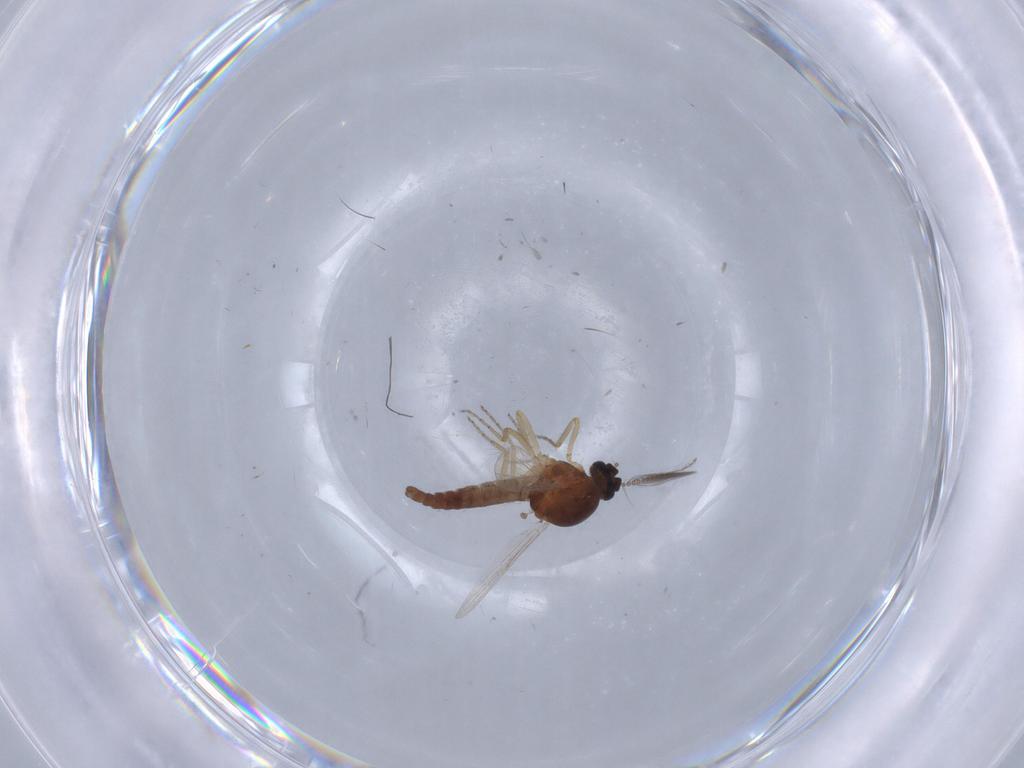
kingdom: Animalia
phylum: Arthropoda
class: Insecta
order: Diptera
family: Ceratopogonidae
